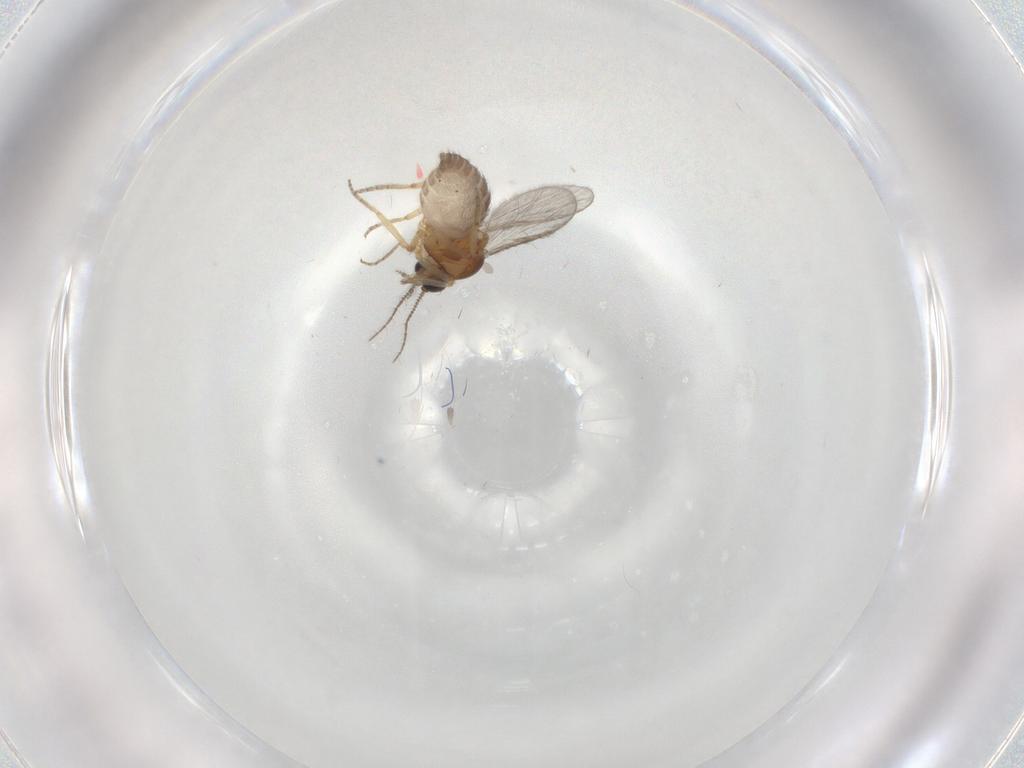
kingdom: Animalia
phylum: Arthropoda
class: Insecta
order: Diptera
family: Ceratopogonidae
